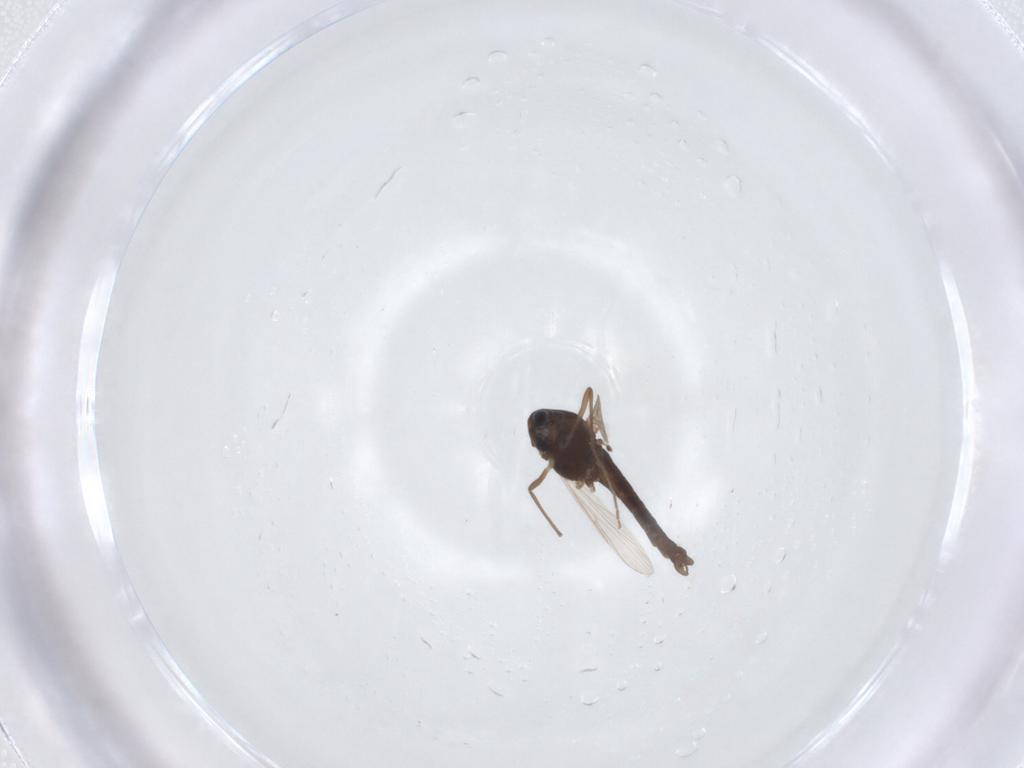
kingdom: Animalia
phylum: Arthropoda
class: Insecta
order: Diptera
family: Chironomidae
